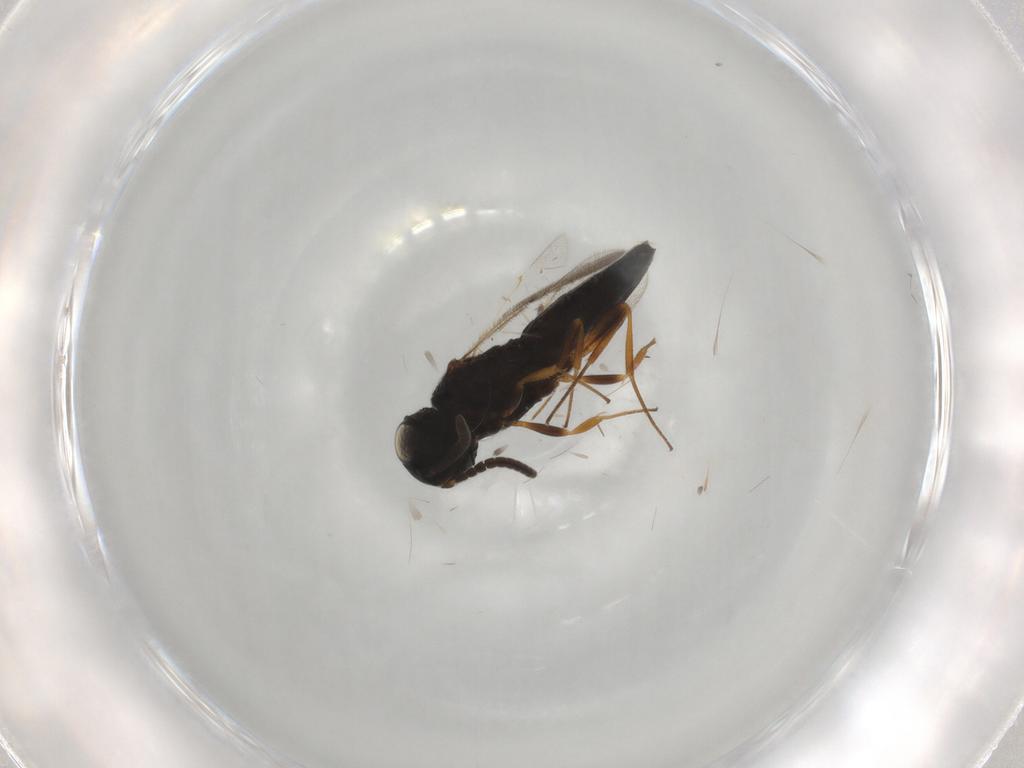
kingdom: Animalia
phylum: Arthropoda
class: Insecta
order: Hymenoptera
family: Scelionidae
